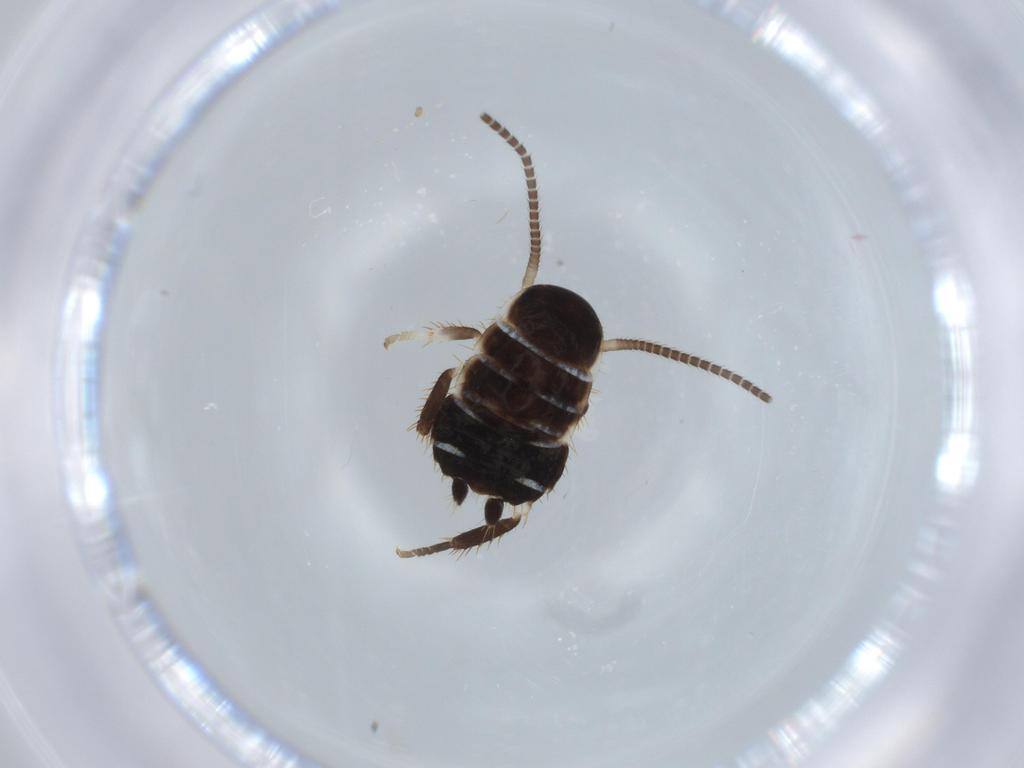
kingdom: Animalia
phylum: Arthropoda
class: Insecta
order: Blattodea
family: Ectobiidae
